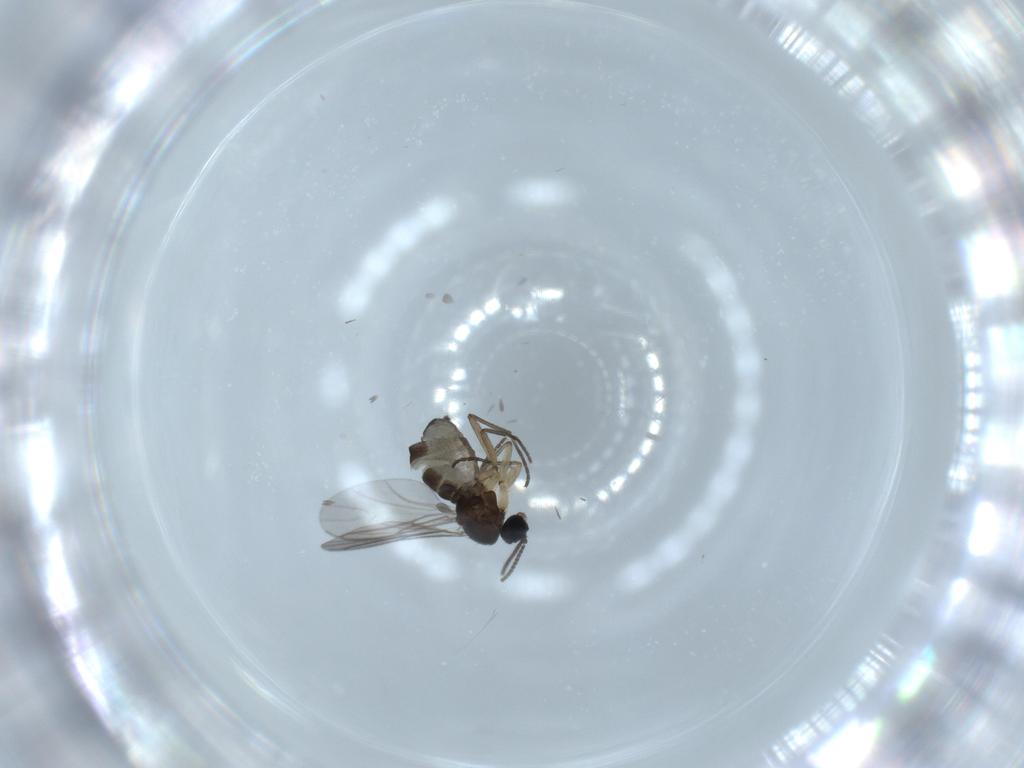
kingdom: Animalia
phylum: Arthropoda
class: Insecta
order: Diptera
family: Sciaridae
